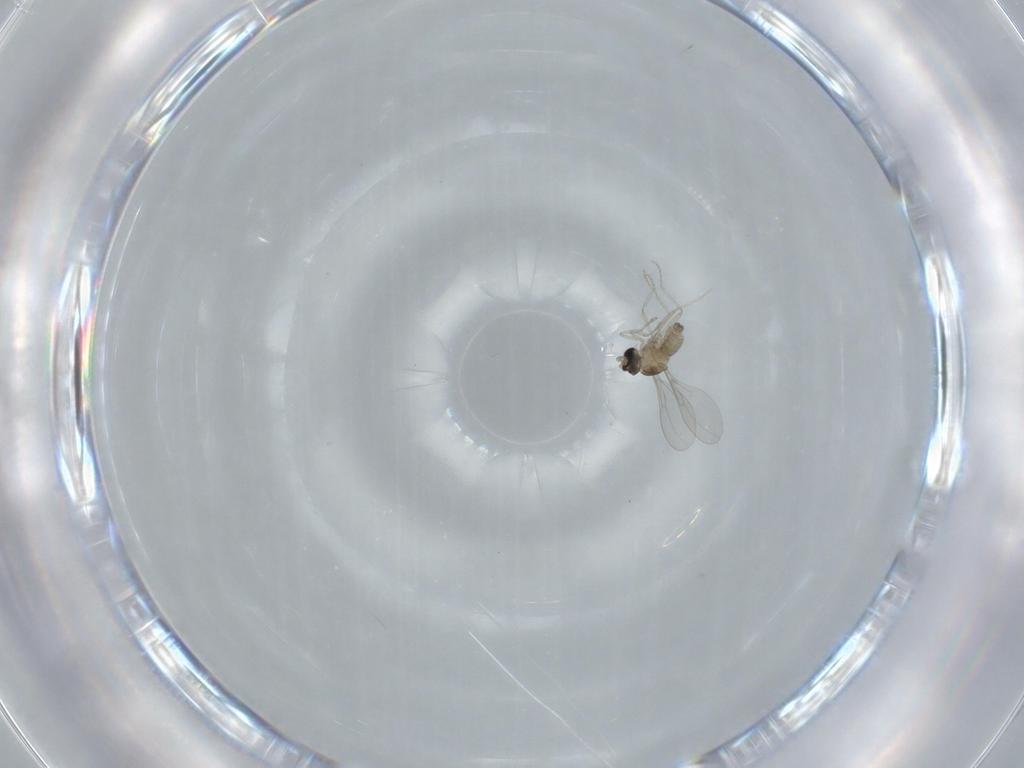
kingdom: Animalia
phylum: Arthropoda
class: Insecta
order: Diptera
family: Cecidomyiidae
